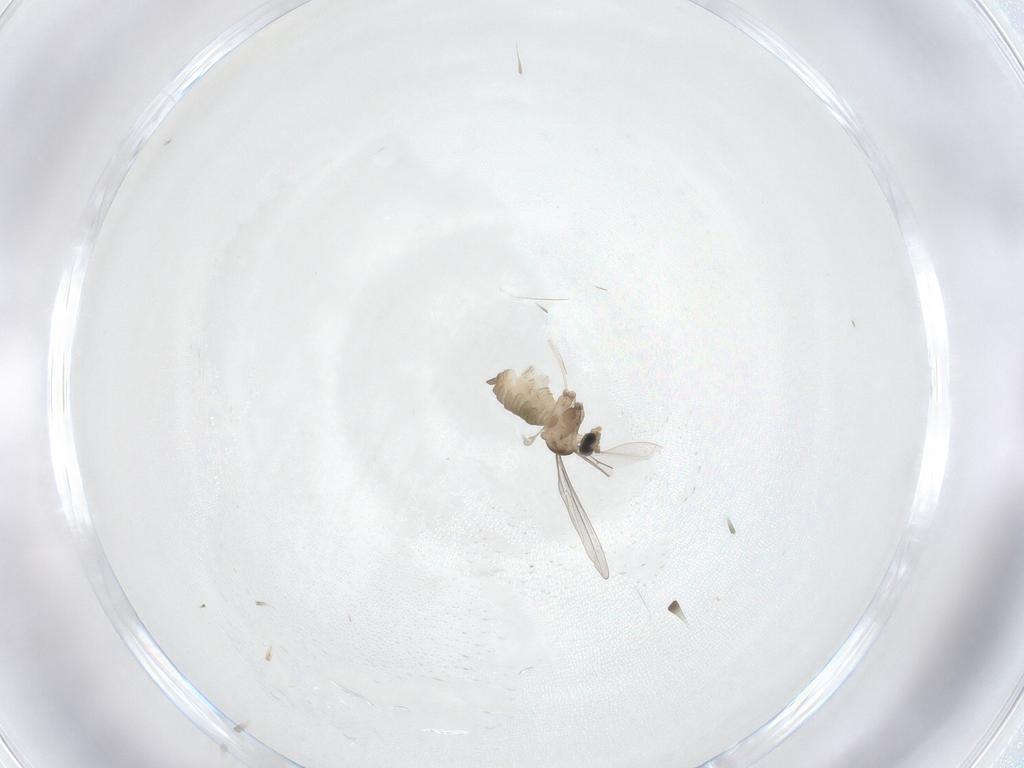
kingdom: Animalia
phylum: Arthropoda
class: Insecta
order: Diptera
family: Cecidomyiidae
